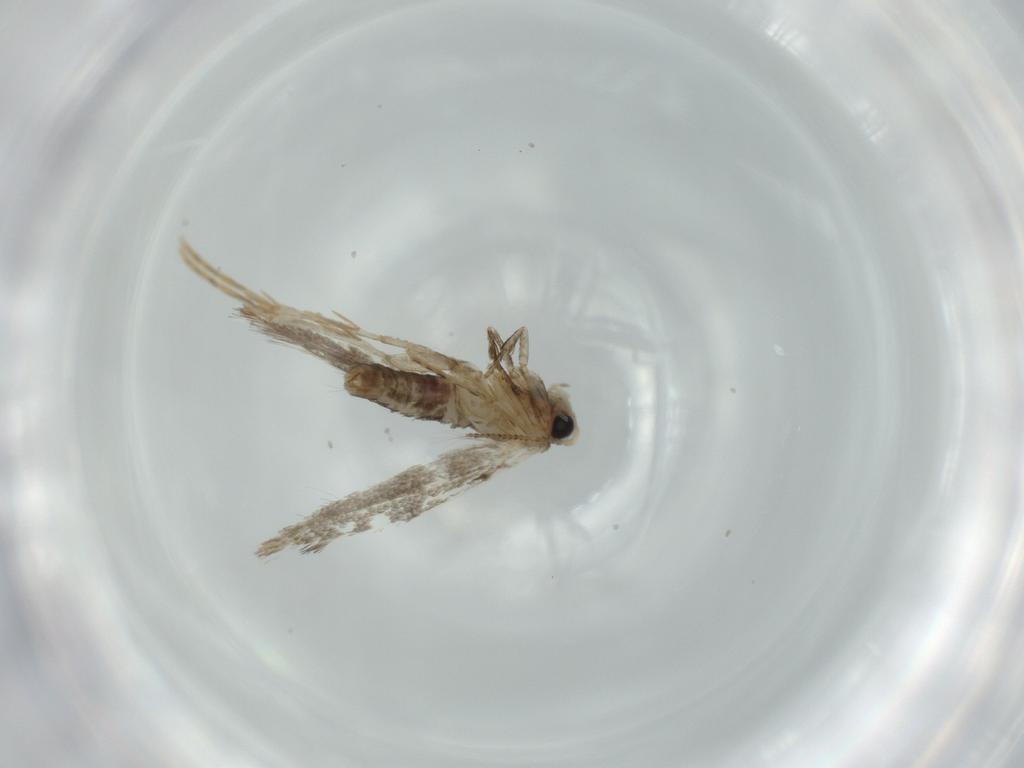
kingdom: Animalia
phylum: Arthropoda
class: Insecta
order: Lepidoptera
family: Tineidae
